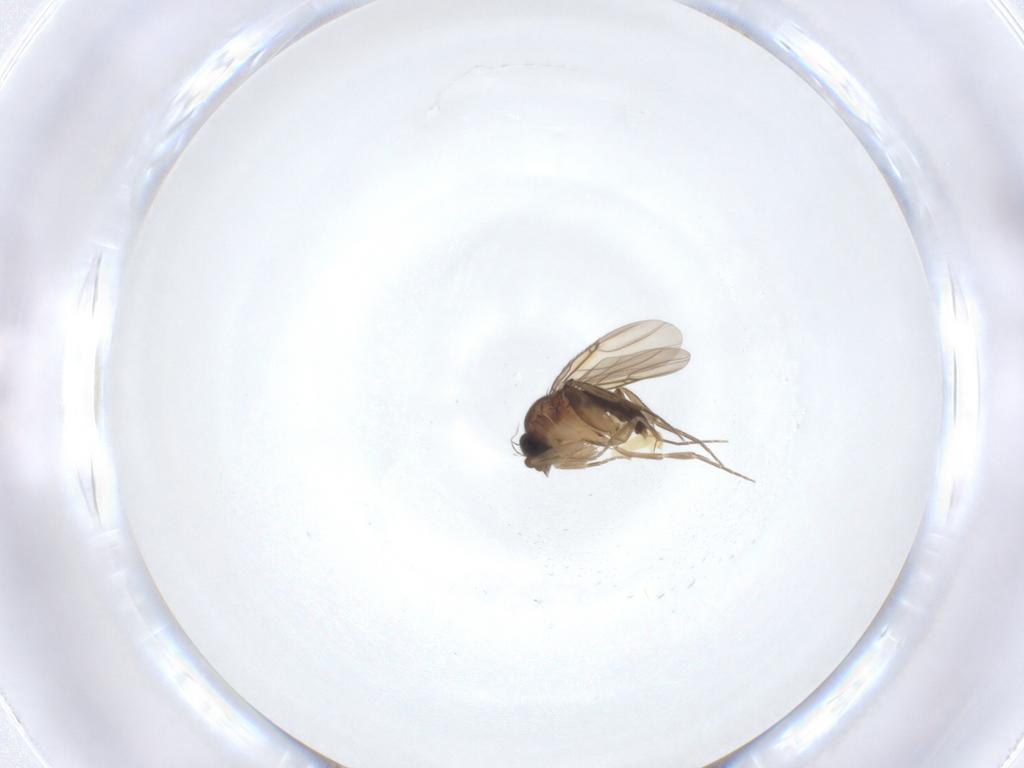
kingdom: Animalia
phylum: Arthropoda
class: Insecta
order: Diptera
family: Phoridae
